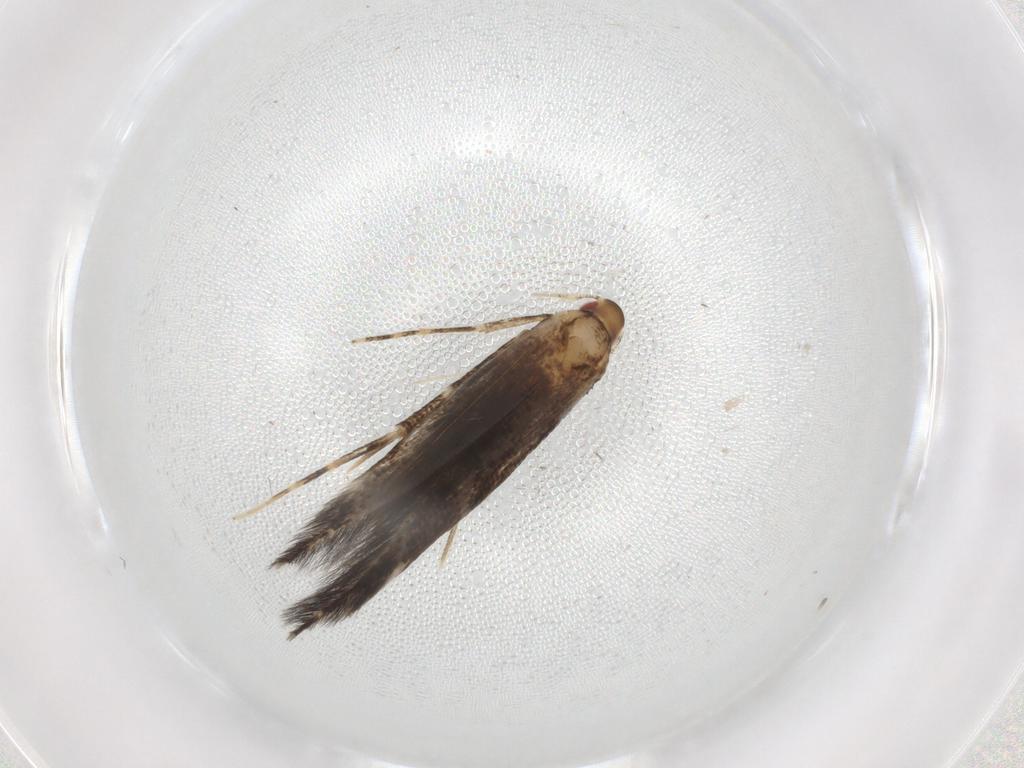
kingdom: Animalia
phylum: Arthropoda
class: Insecta
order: Lepidoptera
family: Cosmopterigidae
